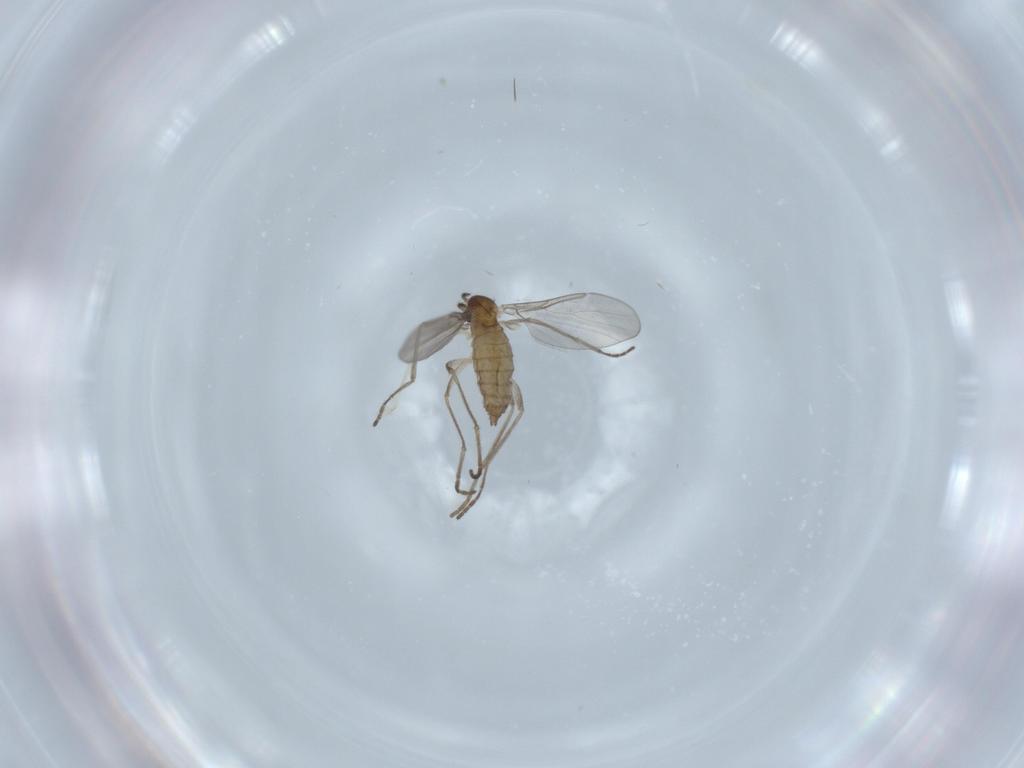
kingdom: Animalia
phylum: Arthropoda
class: Insecta
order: Diptera
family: Cecidomyiidae
